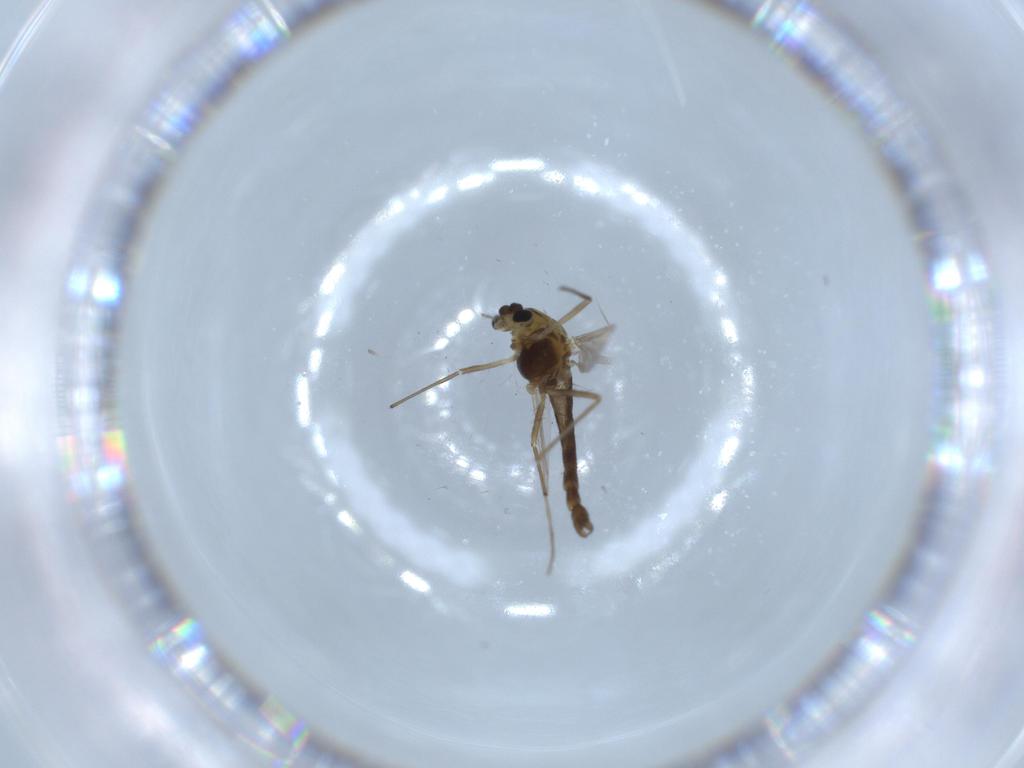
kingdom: Animalia
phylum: Arthropoda
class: Insecta
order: Diptera
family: Chironomidae
